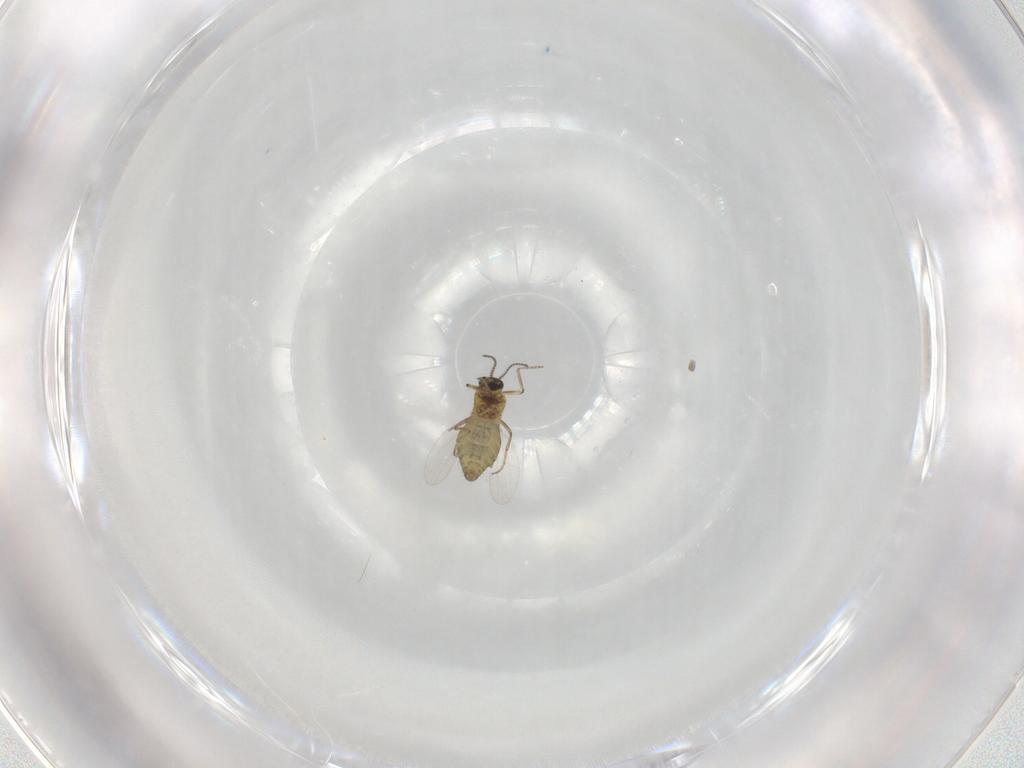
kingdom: Animalia
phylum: Arthropoda
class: Insecta
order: Diptera
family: Ceratopogonidae
